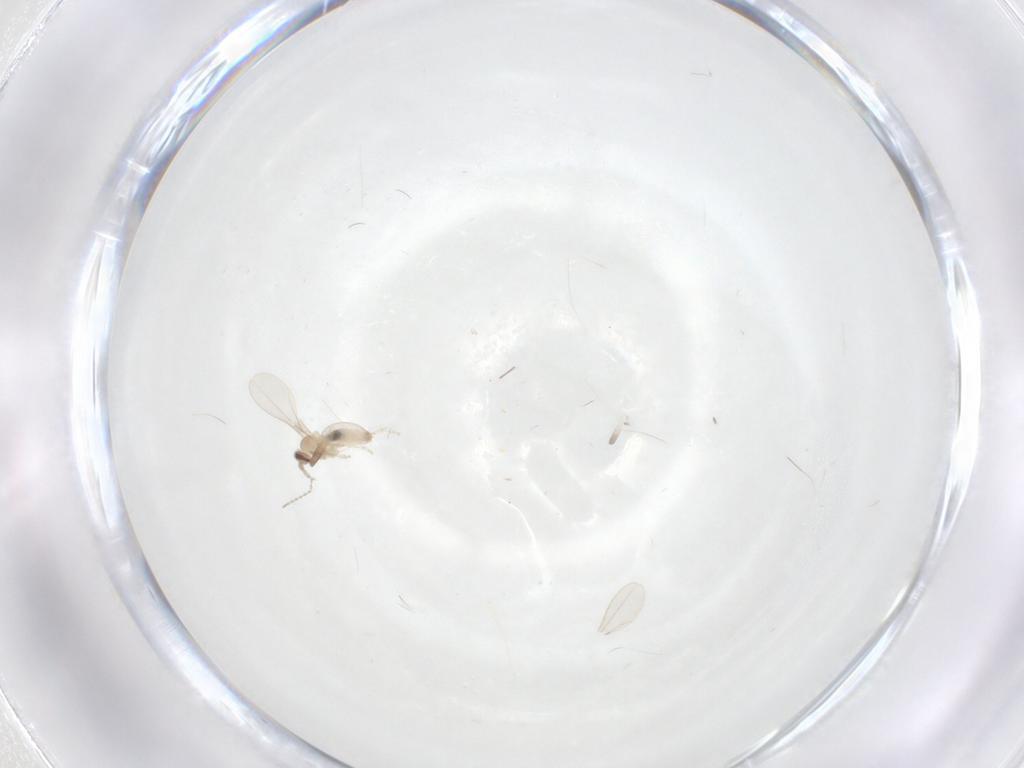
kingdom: Animalia
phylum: Arthropoda
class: Insecta
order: Diptera
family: Cecidomyiidae
